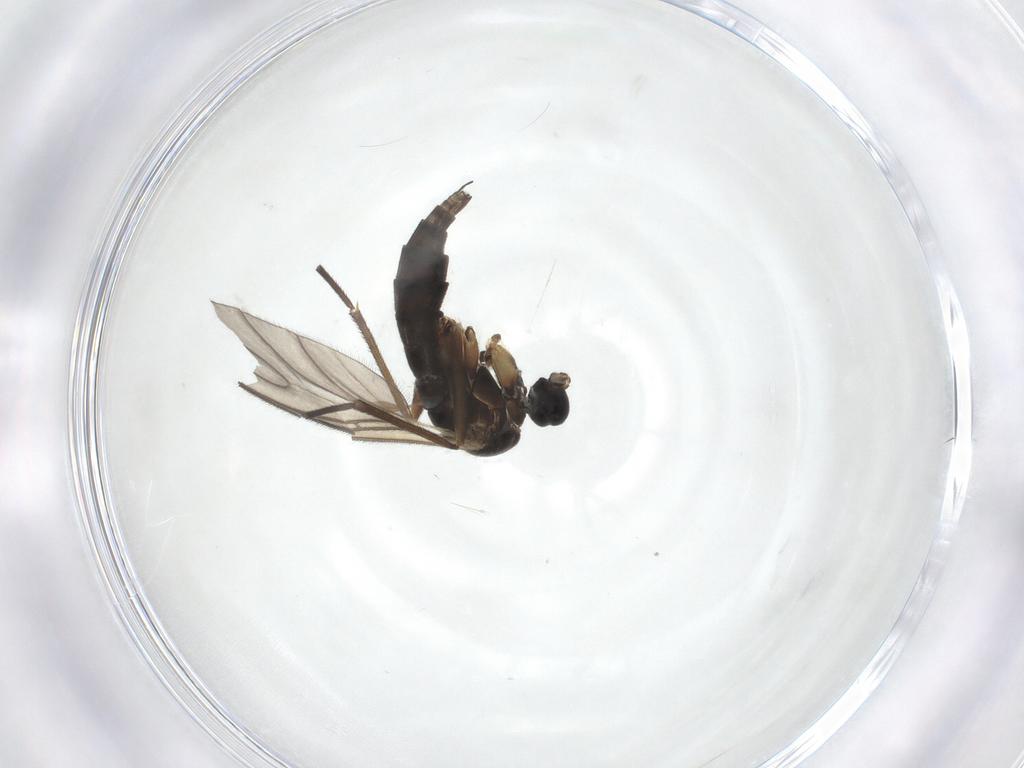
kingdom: Animalia
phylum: Arthropoda
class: Insecta
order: Diptera
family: Sciaridae
